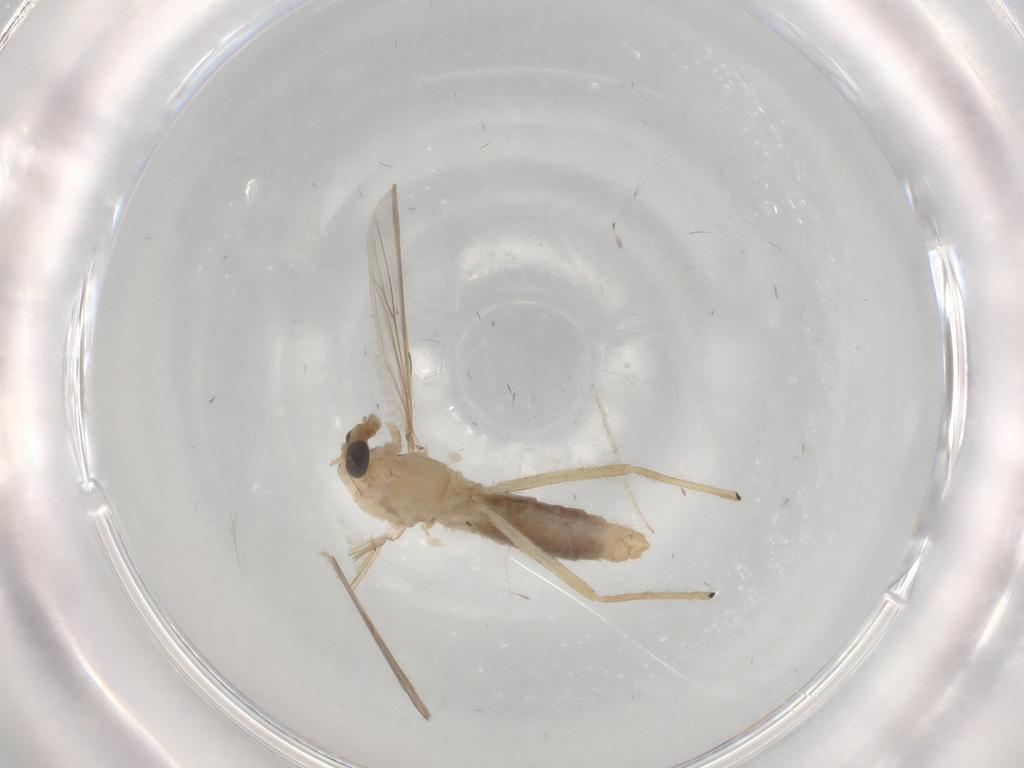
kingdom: Animalia
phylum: Arthropoda
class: Insecta
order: Diptera
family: Chironomidae
